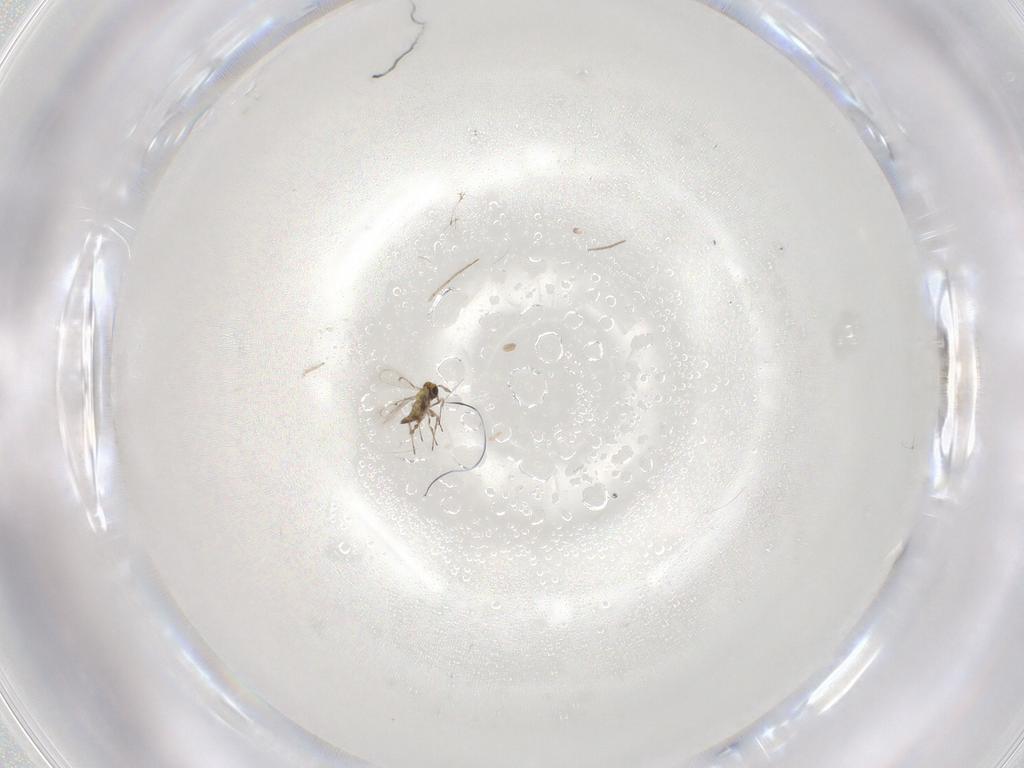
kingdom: Animalia
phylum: Arthropoda
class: Insecta
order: Hymenoptera
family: Trichogrammatidae
